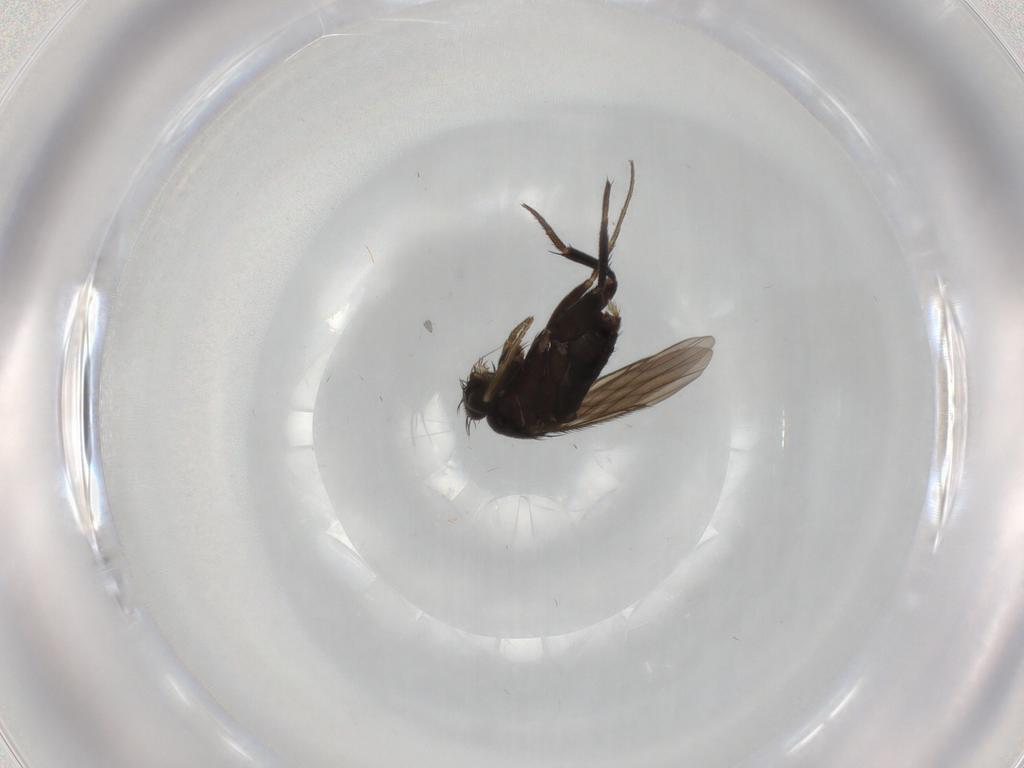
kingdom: Animalia
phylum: Arthropoda
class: Insecta
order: Diptera
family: Phoridae
